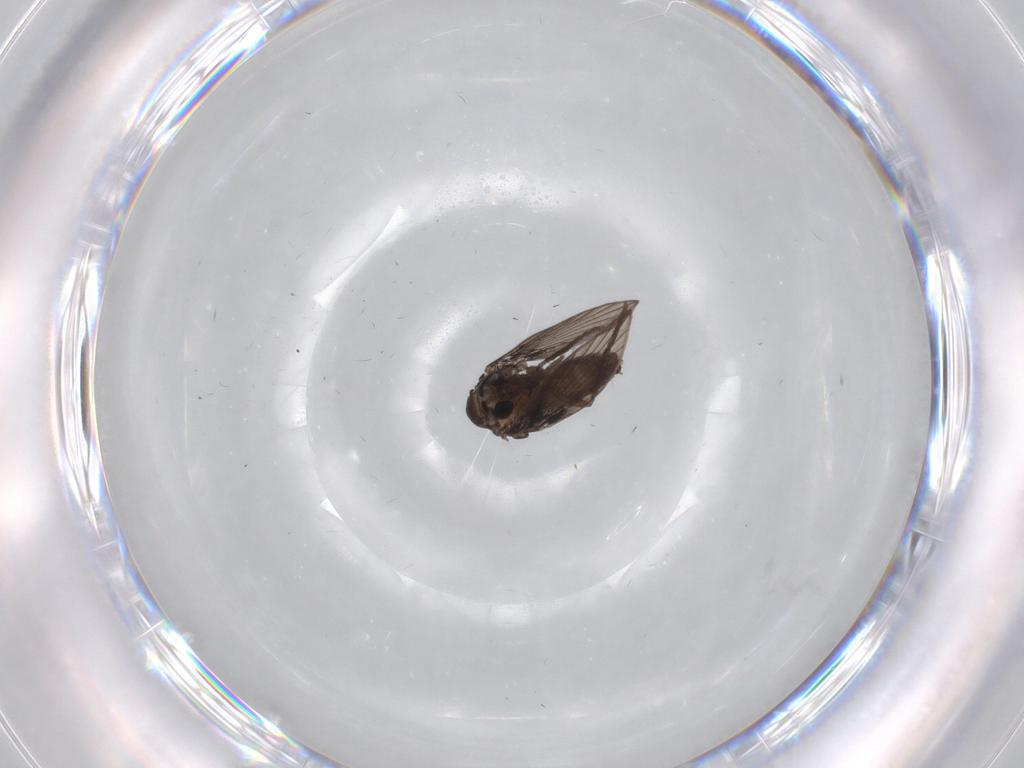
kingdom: Animalia
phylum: Arthropoda
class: Insecta
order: Diptera
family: Psychodidae
